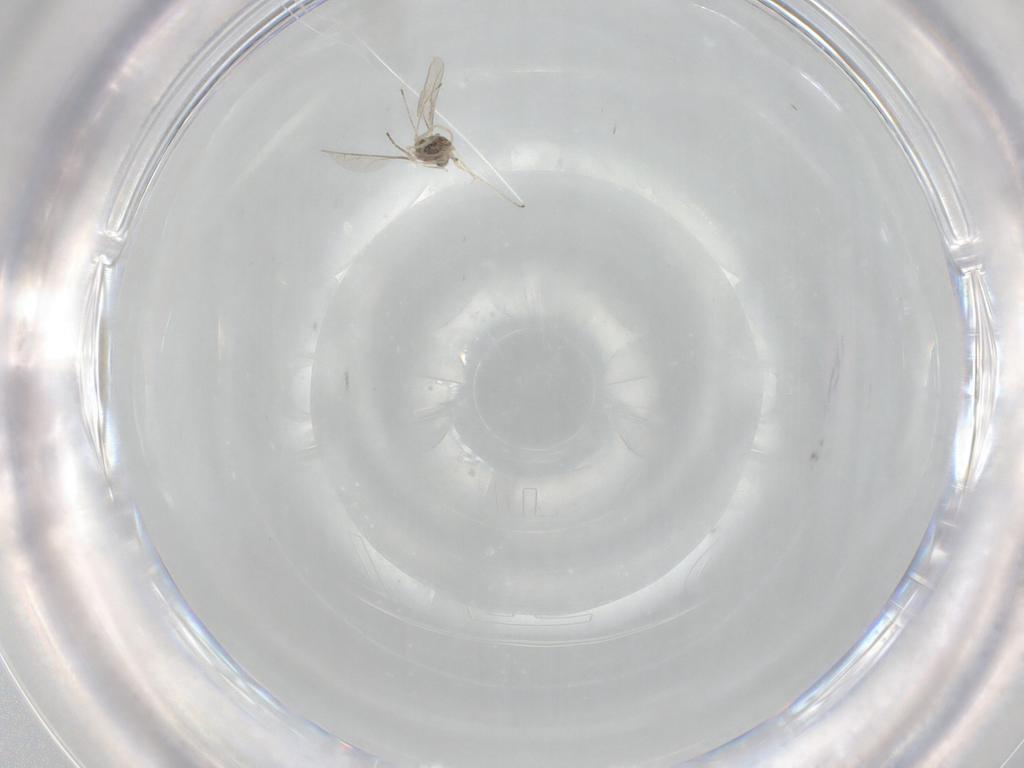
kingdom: Animalia
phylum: Arthropoda
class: Insecta
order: Diptera
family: Cecidomyiidae
